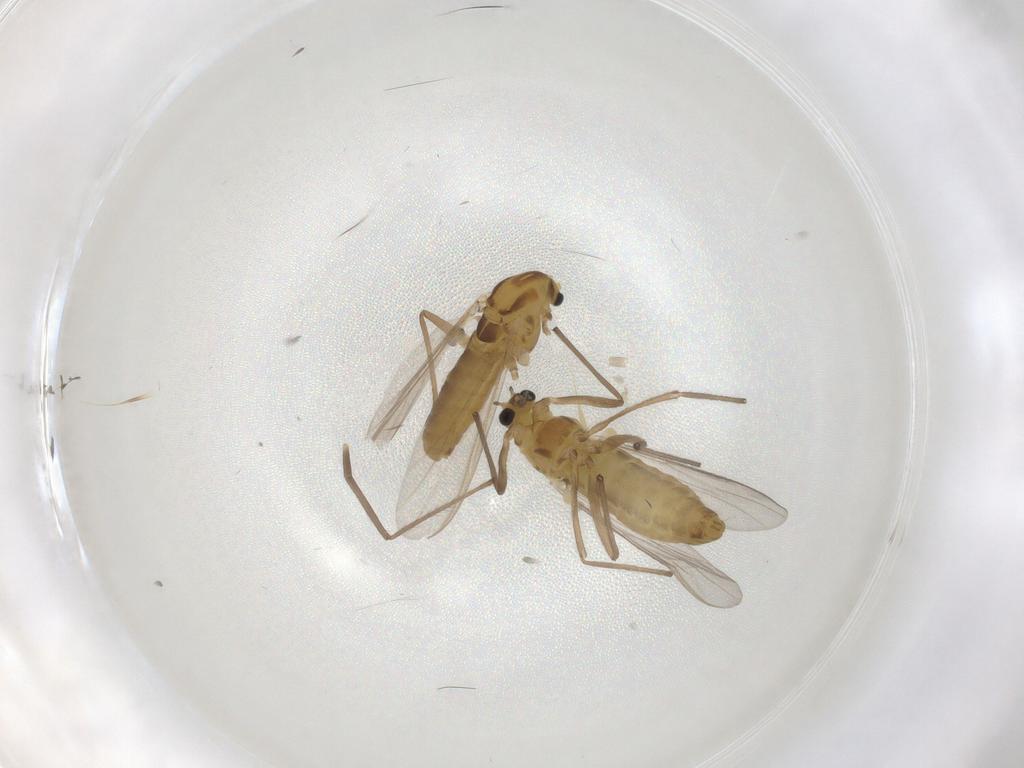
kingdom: Animalia
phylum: Arthropoda
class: Insecta
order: Diptera
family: Chironomidae
